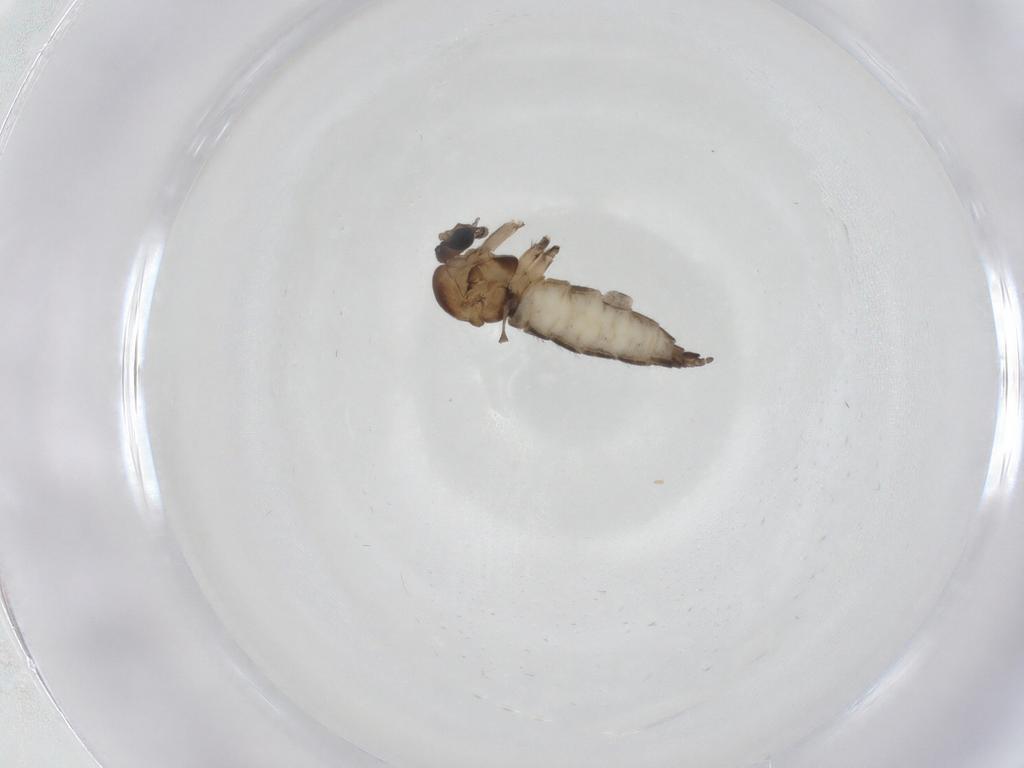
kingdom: Animalia
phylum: Arthropoda
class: Insecta
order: Diptera
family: Sciaridae
